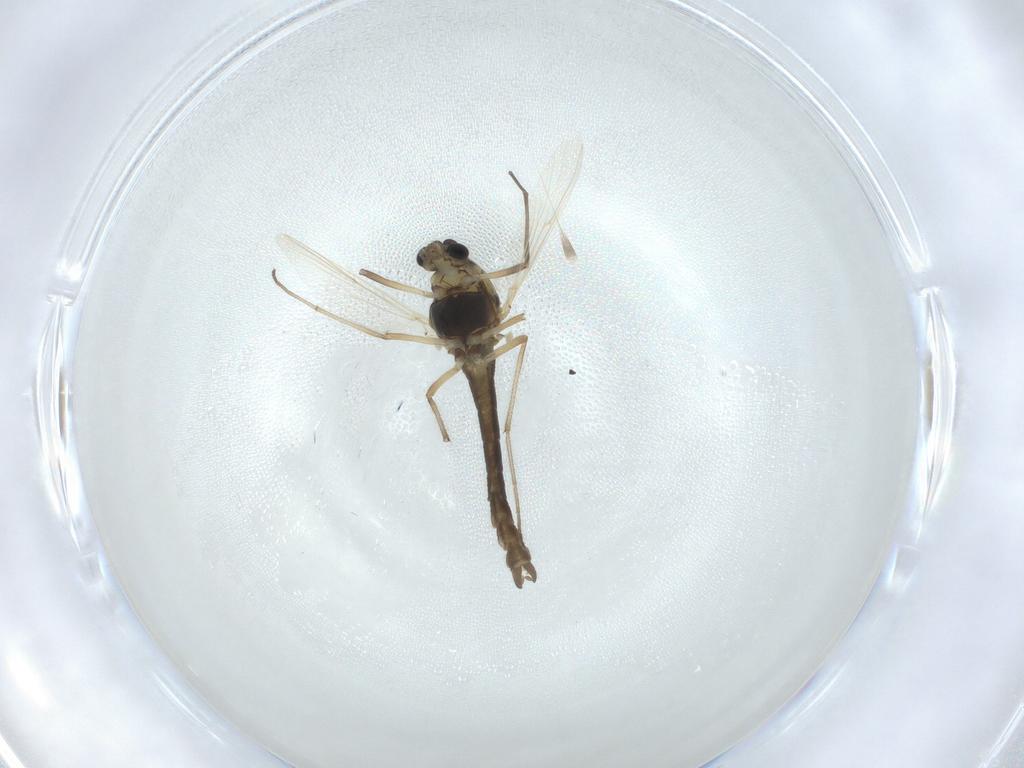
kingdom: Animalia
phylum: Arthropoda
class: Insecta
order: Diptera
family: Chironomidae
